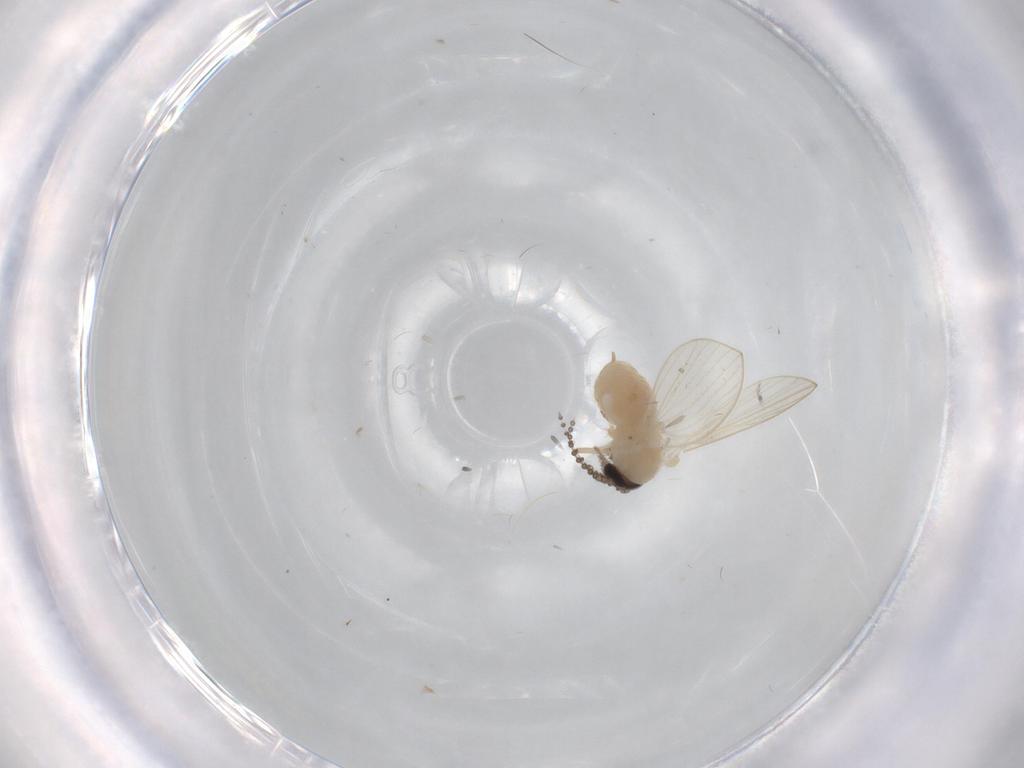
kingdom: Animalia
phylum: Arthropoda
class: Insecta
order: Diptera
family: Psychodidae
